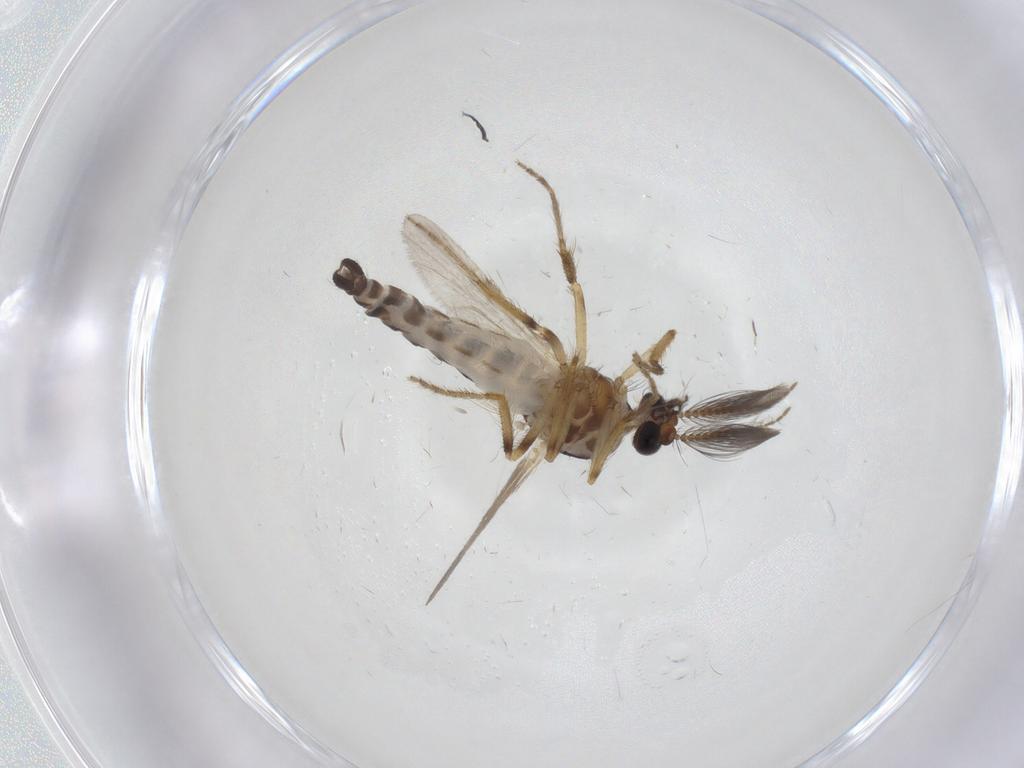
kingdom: Animalia
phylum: Arthropoda
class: Insecta
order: Diptera
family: Ceratopogonidae
